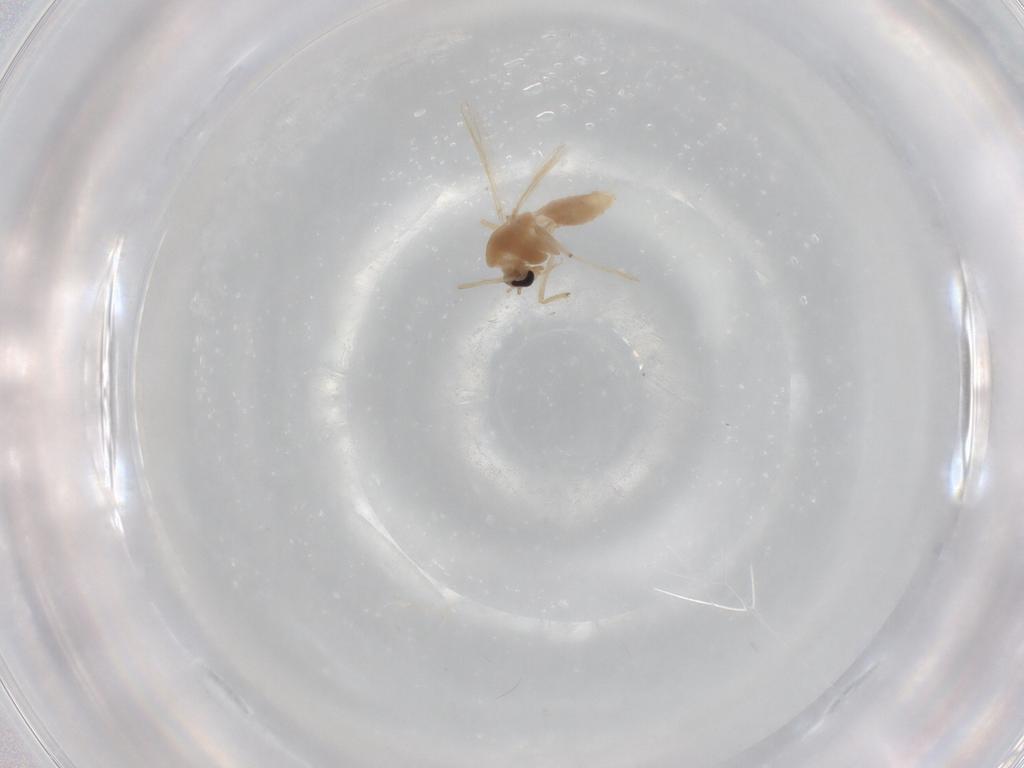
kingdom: Animalia
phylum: Arthropoda
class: Insecta
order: Diptera
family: Chironomidae
